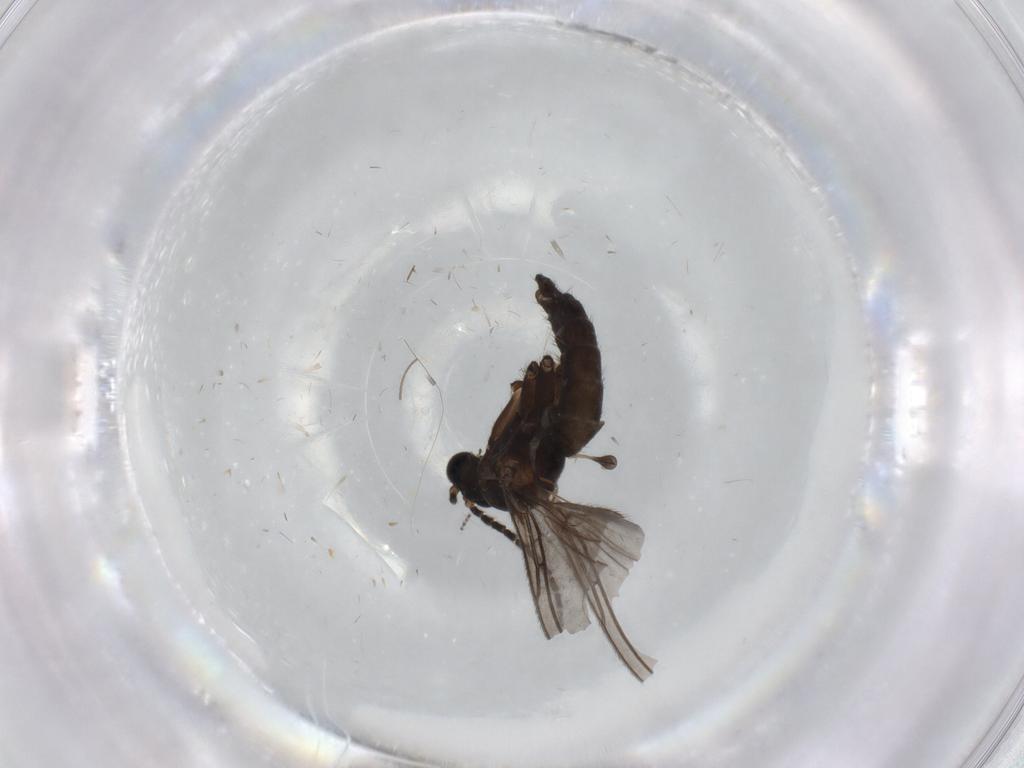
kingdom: Animalia
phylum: Arthropoda
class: Insecta
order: Diptera
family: Sciaridae
